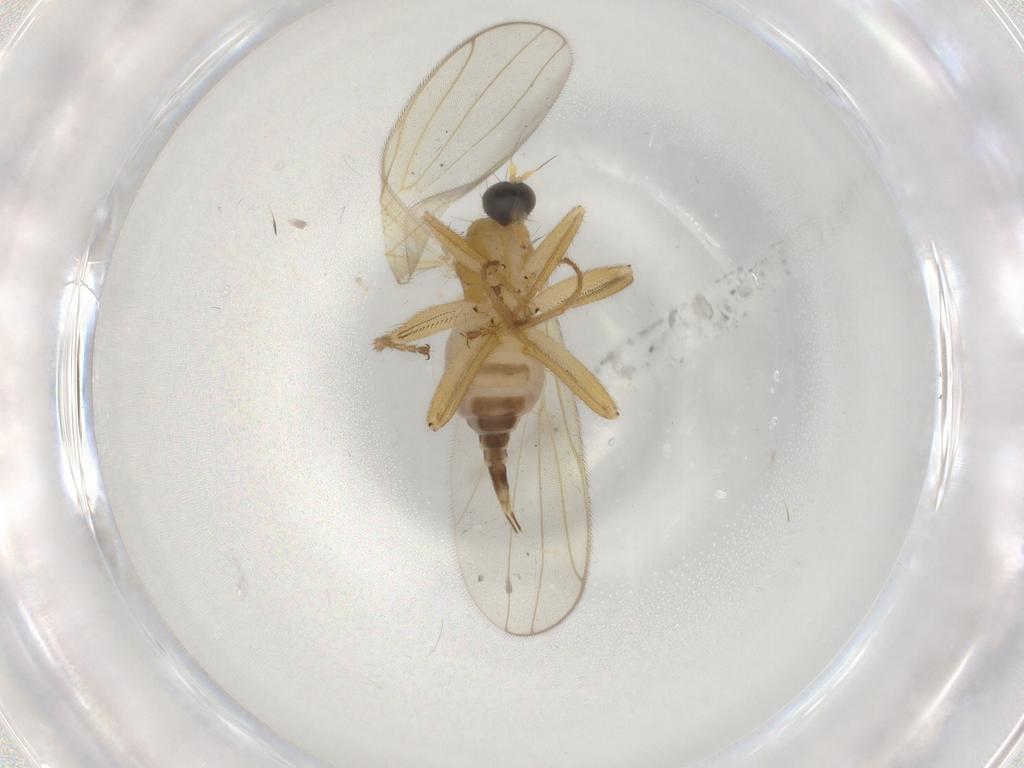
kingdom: Animalia
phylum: Arthropoda
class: Insecta
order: Diptera
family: Hybotidae
